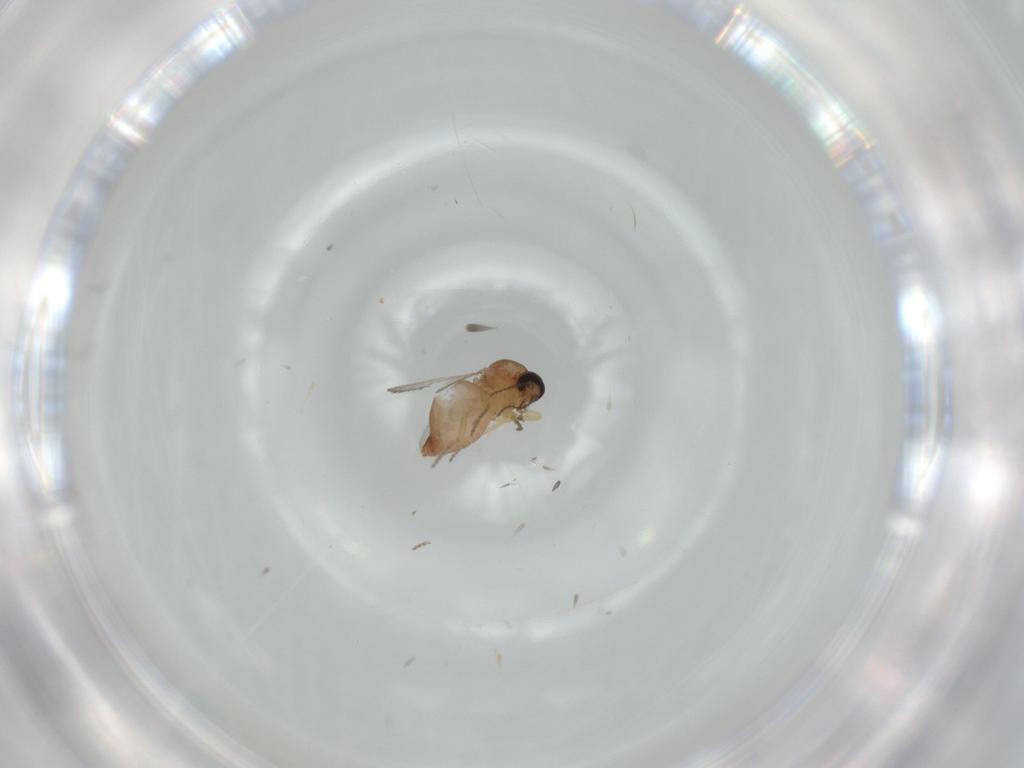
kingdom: Animalia
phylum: Arthropoda
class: Insecta
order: Diptera
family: Ceratopogonidae
